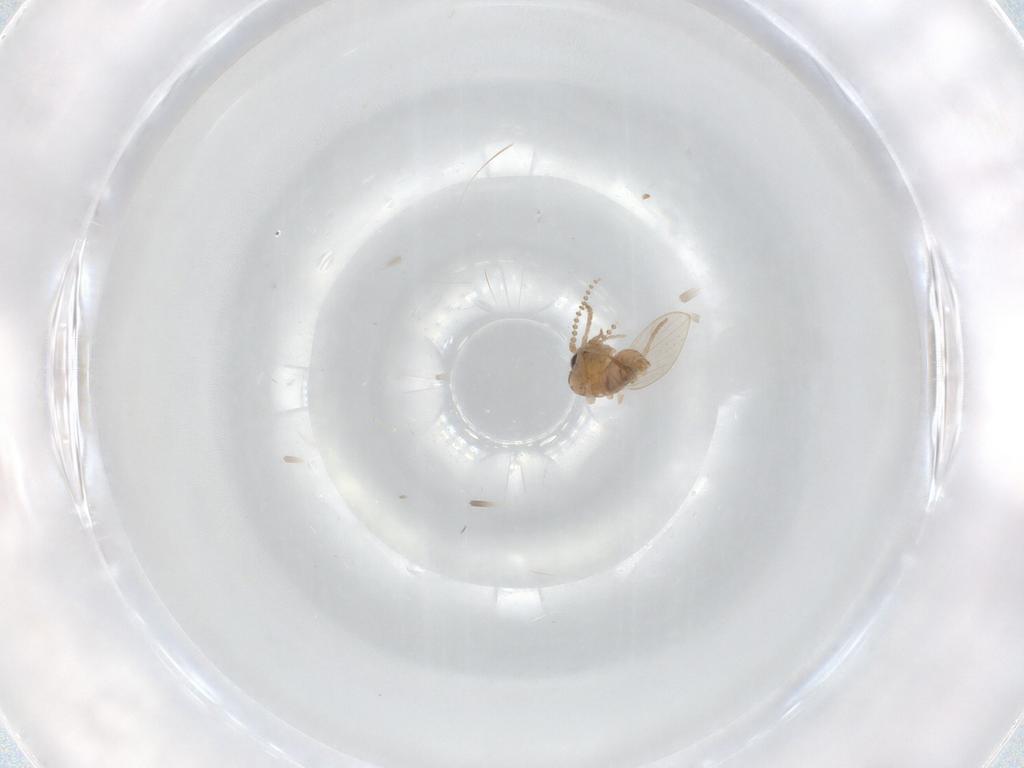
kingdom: Animalia
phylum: Arthropoda
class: Insecta
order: Diptera
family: Psychodidae
